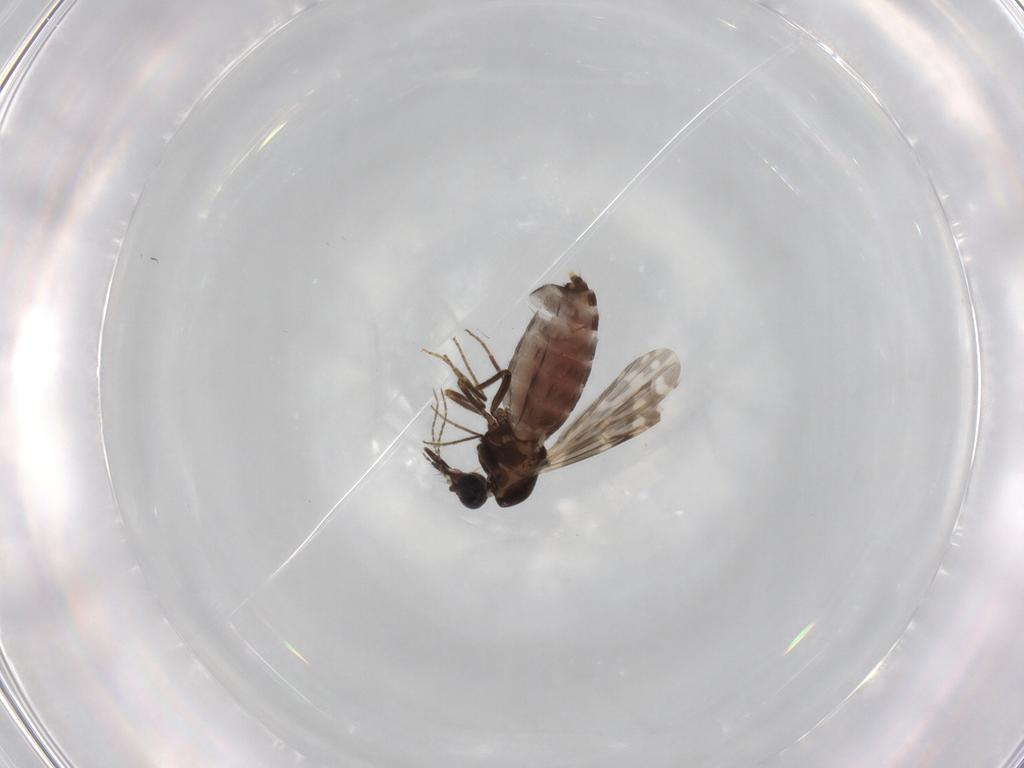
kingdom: Animalia
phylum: Arthropoda
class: Insecta
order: Diptera
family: Ceratopogonidae
